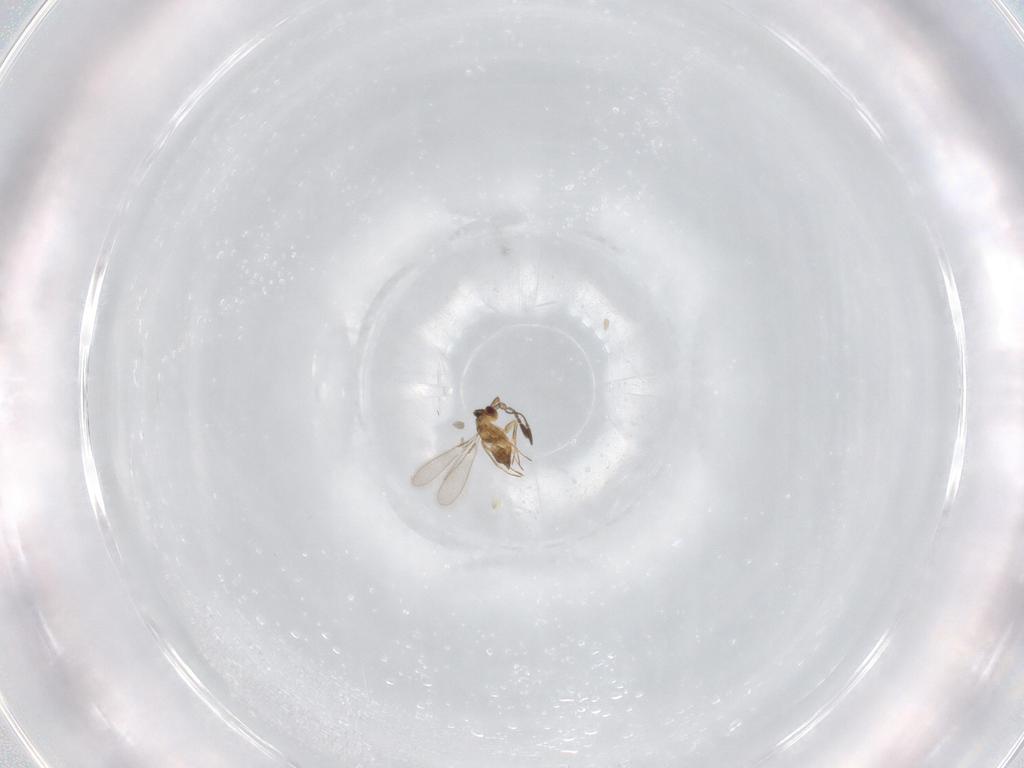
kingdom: Animalia
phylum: Arthropoda
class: Insecta
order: Hymenoptera
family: Mymaridae
